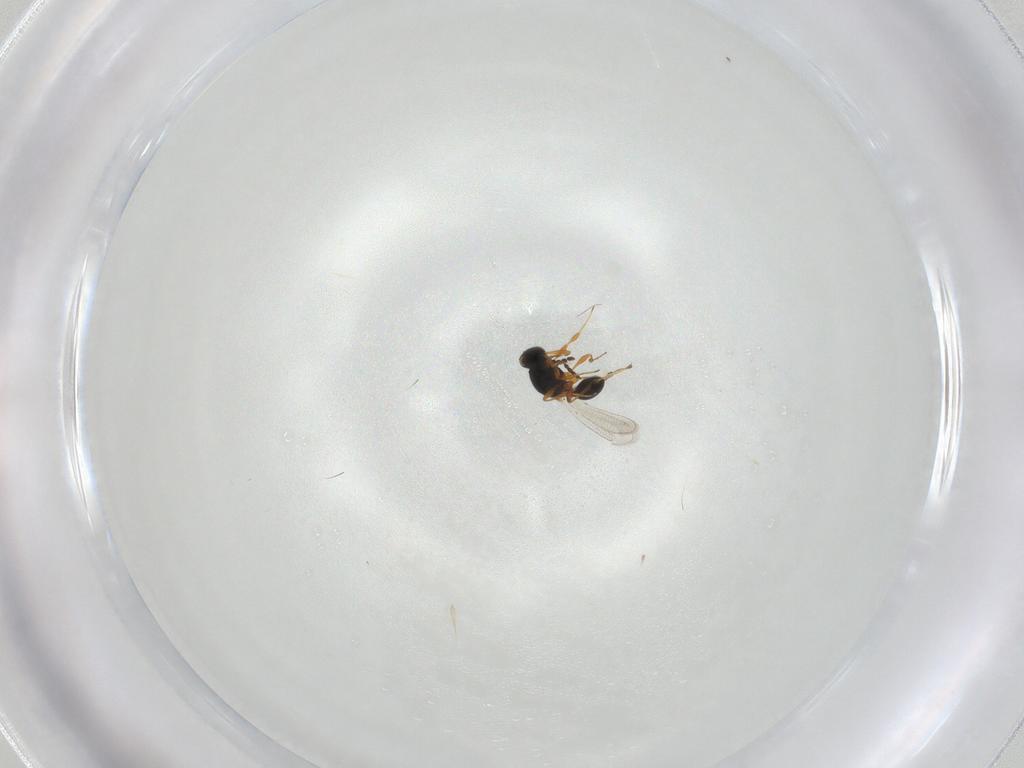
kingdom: Animalia
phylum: Arthropoda
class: Insecta
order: Hymenoptera
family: Platygastridae
